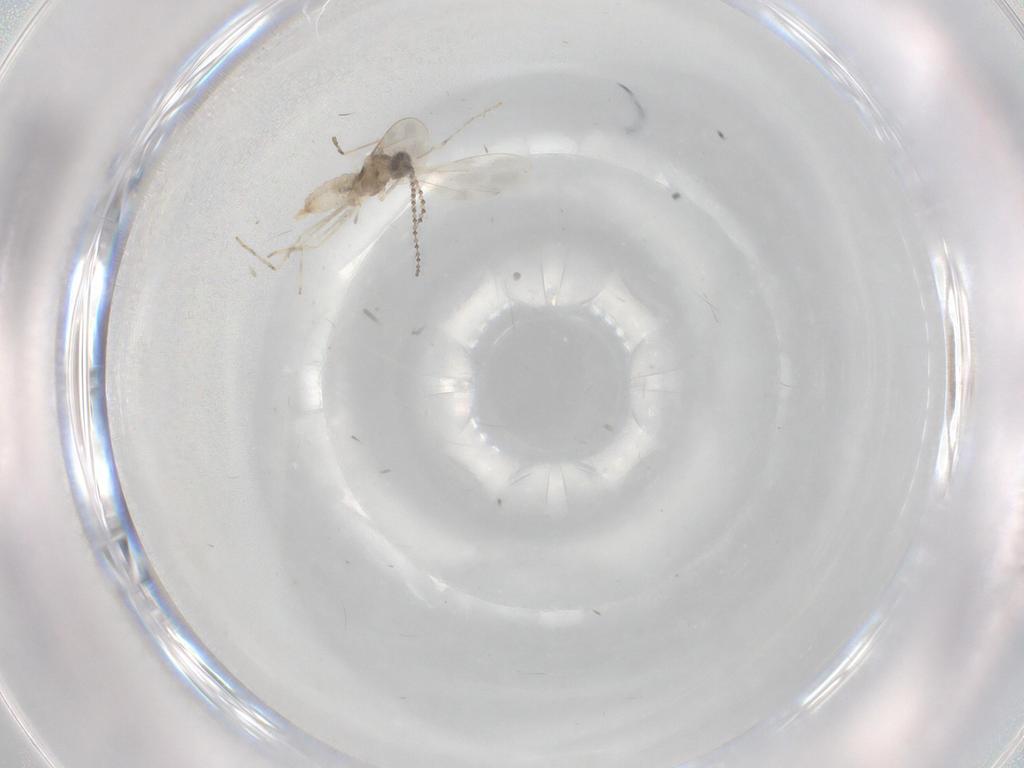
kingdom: Animalia
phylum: Arthropoda
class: Insecta
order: Diptera
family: Cecidomyiidae
